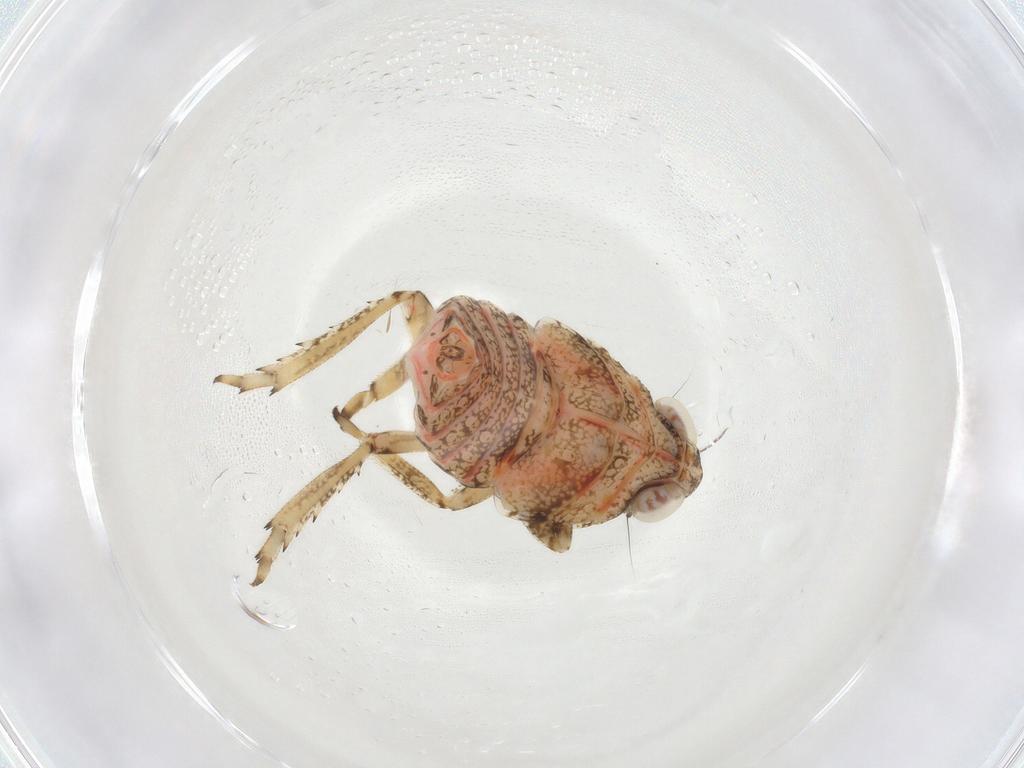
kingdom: Animalia
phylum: Arthropoda
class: Insecta
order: Hemiptera
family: Issidae
